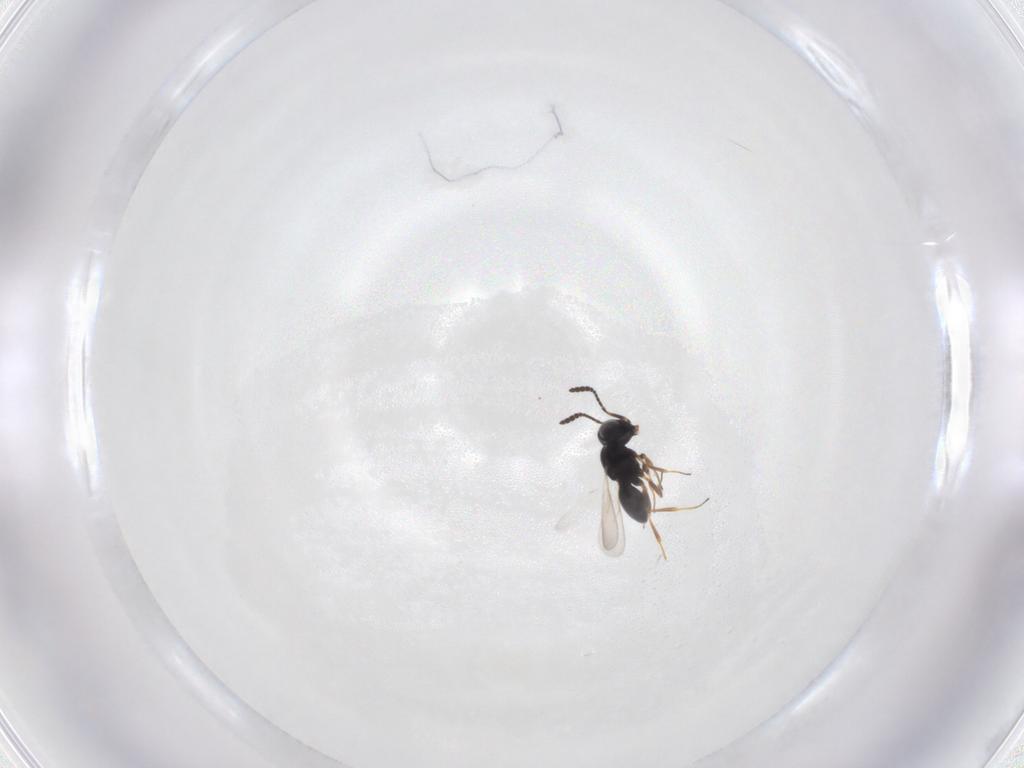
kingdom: Animalia
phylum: Arthropoda
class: Insecta
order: Hymenoptera
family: Scelionidae
